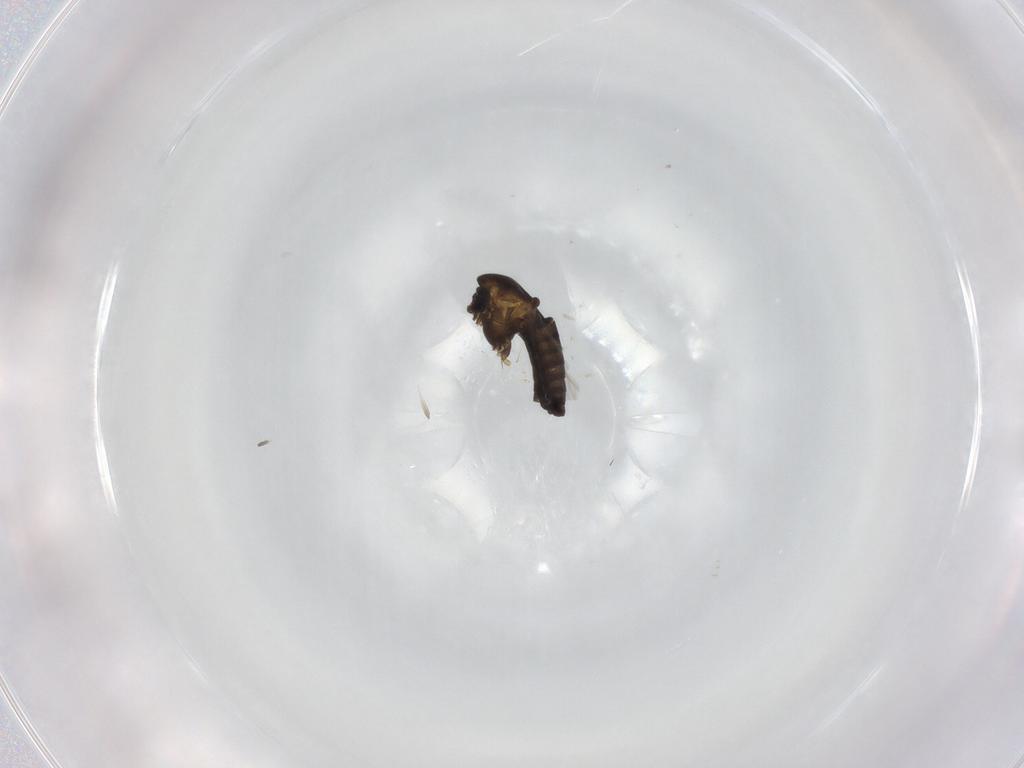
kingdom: Animalia
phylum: Arthropoda
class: Insecta
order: Diptera
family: Chironomidae
